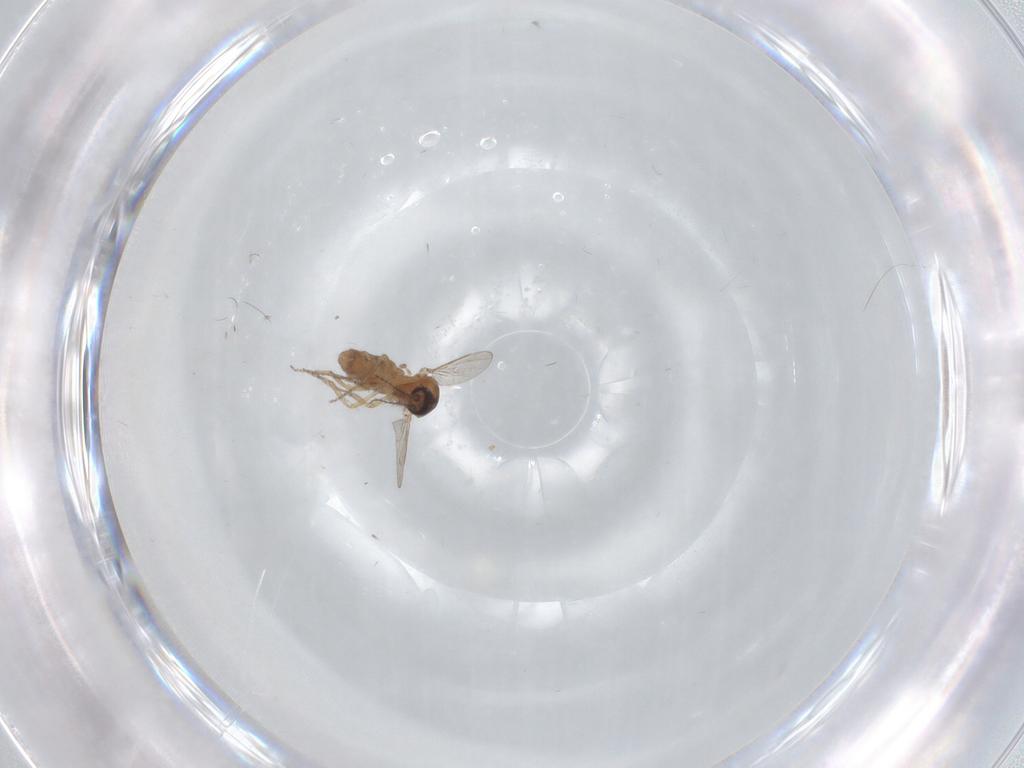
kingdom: Animalia
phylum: Arthropoda
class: Insecta
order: Diptera
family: Ceratopogonidae
